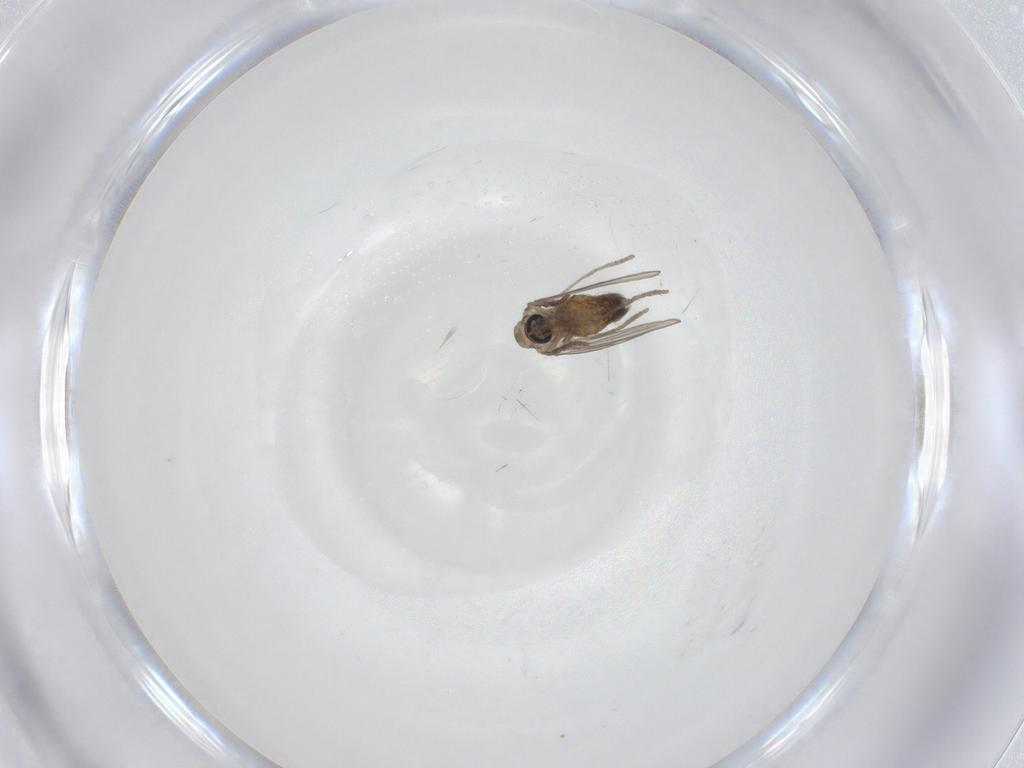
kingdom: Animalia
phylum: Arthropoda
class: Insecta
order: Diptera
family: Psychodidae
